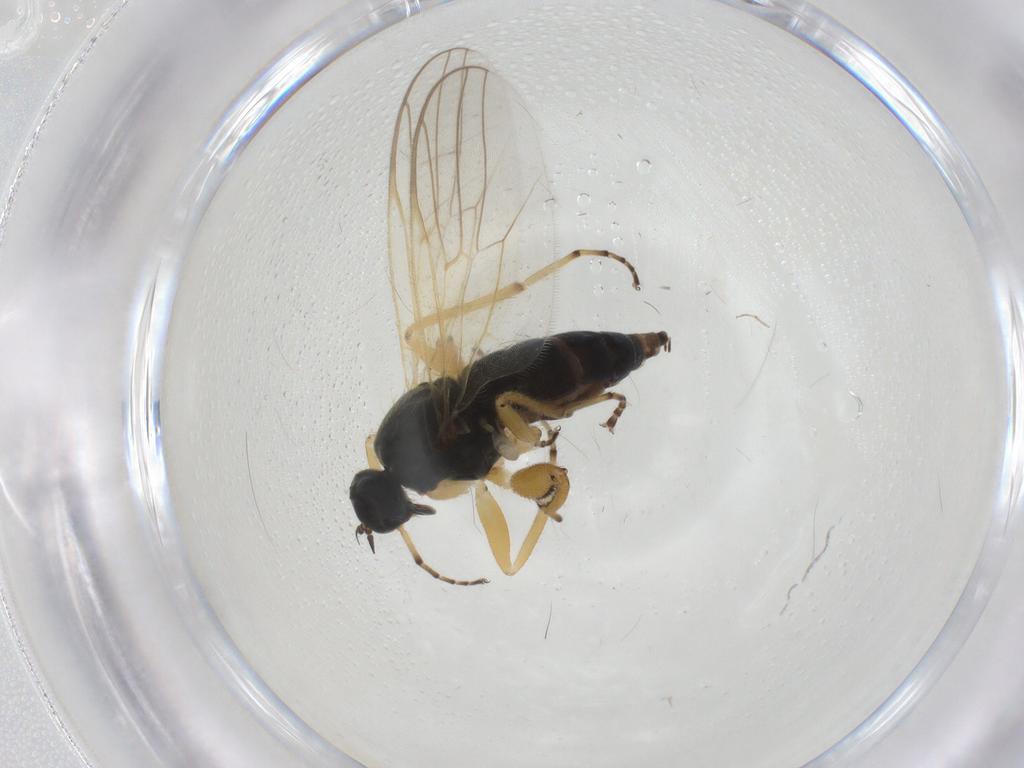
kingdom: Animalia
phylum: Arthropoda
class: Insecta
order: Diptera
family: Hybotidae
